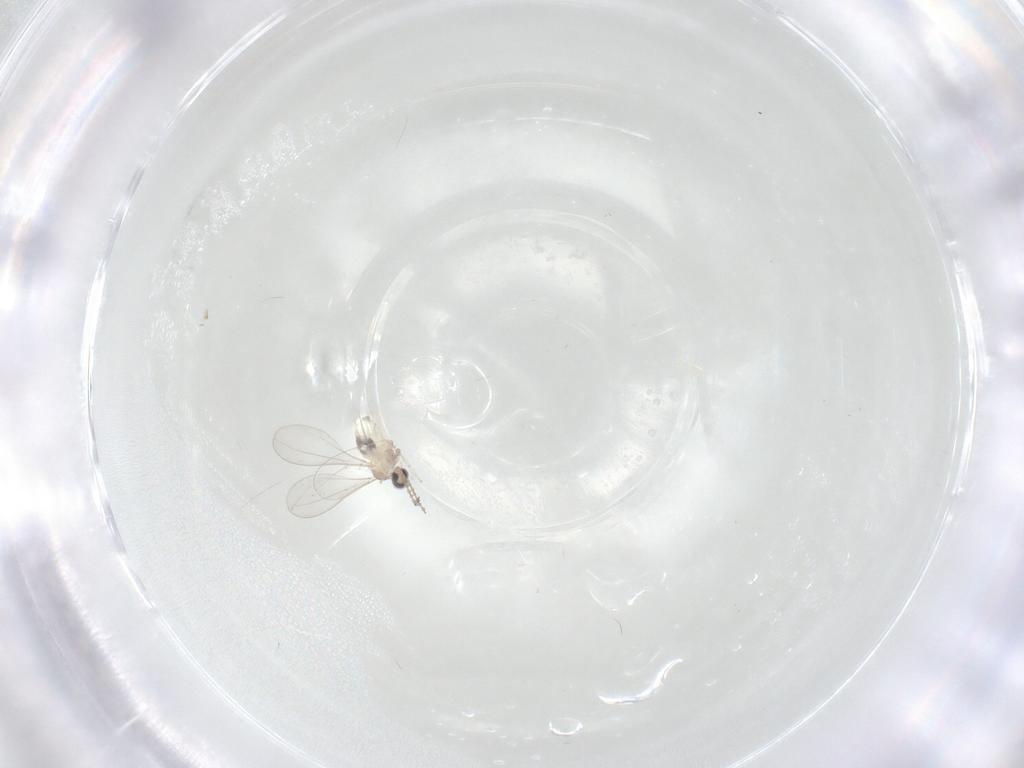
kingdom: Animalia
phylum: Arthropoda
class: Insecta
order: Diptera
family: Cecidomyiidae
